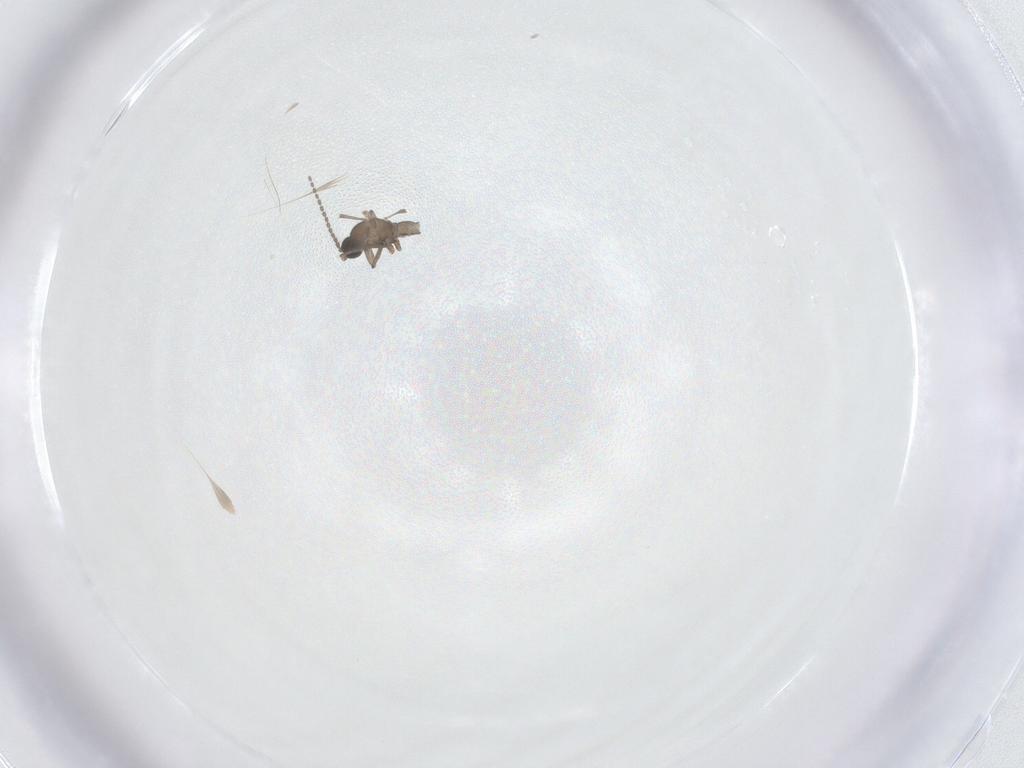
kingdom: Animalia
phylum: Arthropoda
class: Insecta
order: Diptera
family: Sciaridae
